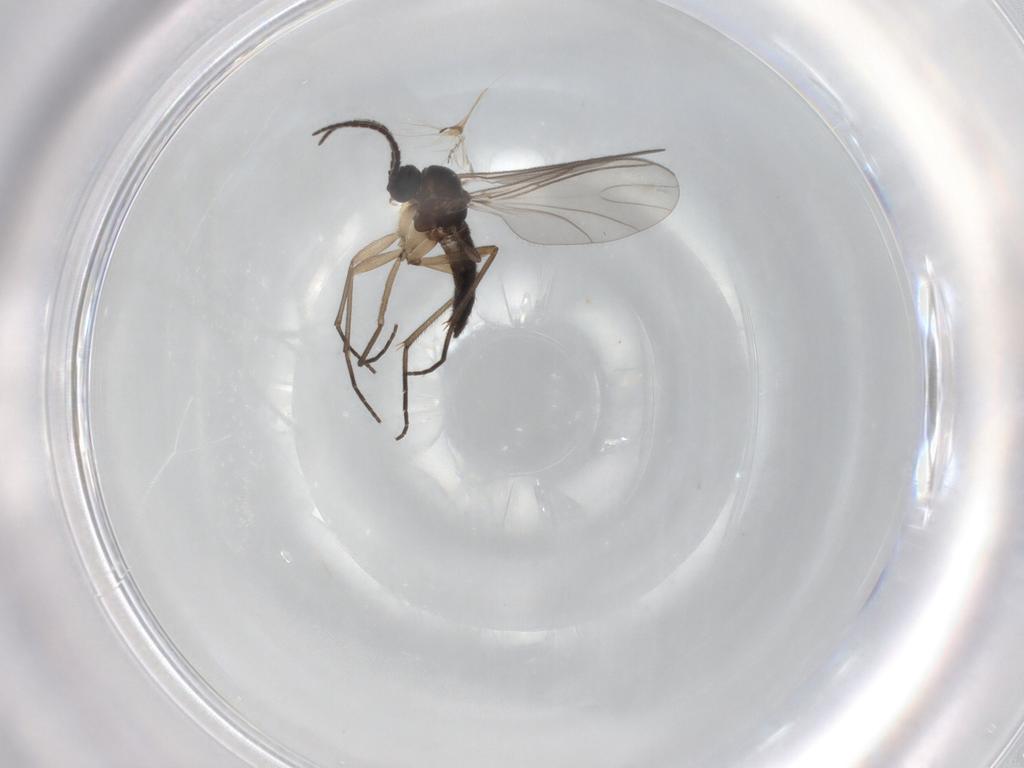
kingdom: Animalia
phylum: Arthropoda
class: Insecta
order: Diptera
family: Sciaridae
